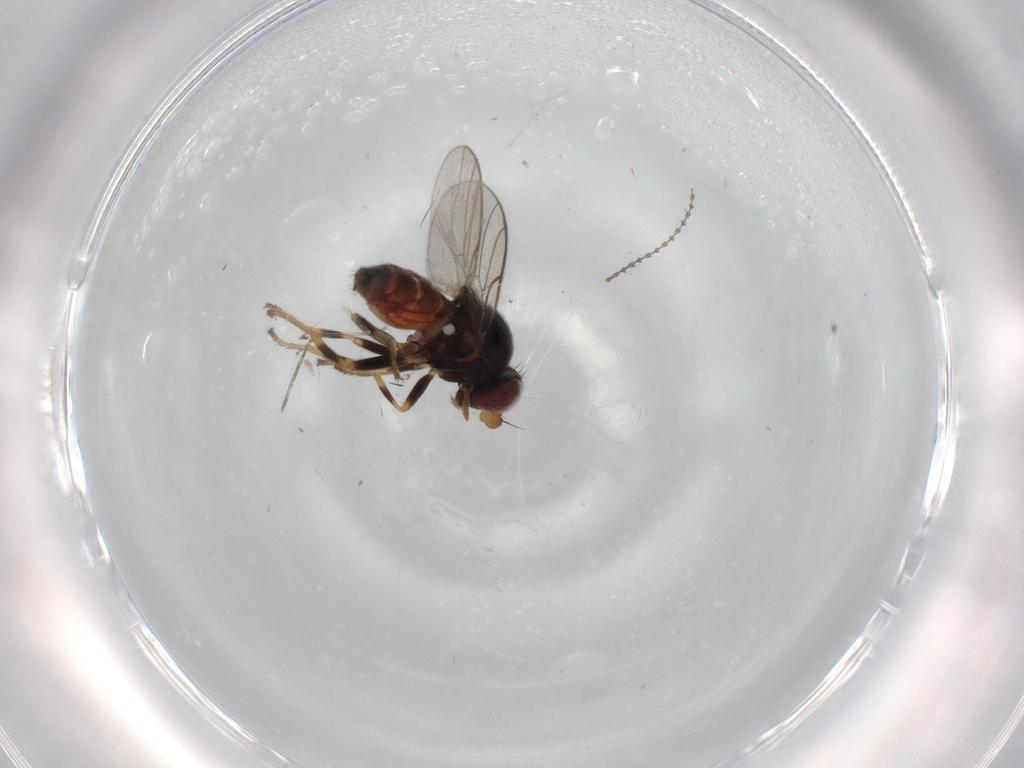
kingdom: Animalia
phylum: Arthropoda
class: Insecta
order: Diptera
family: Chloropidae
